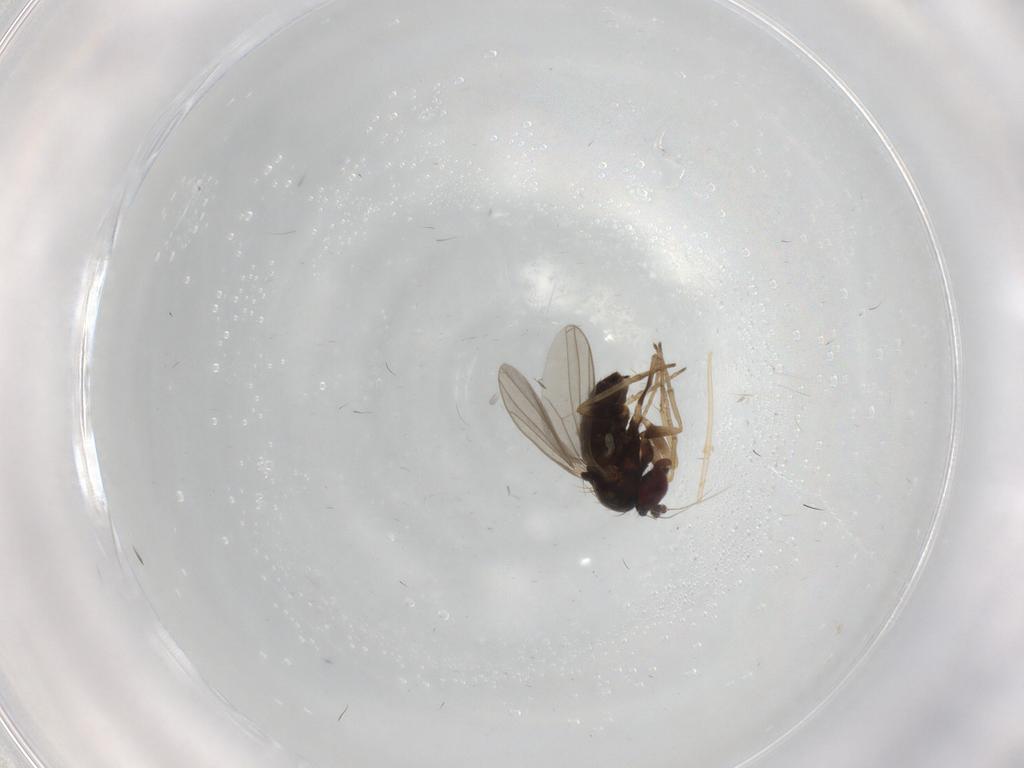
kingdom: Animalia
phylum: Arthropoda
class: Insecta
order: Diptera
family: Dolichopodidae
